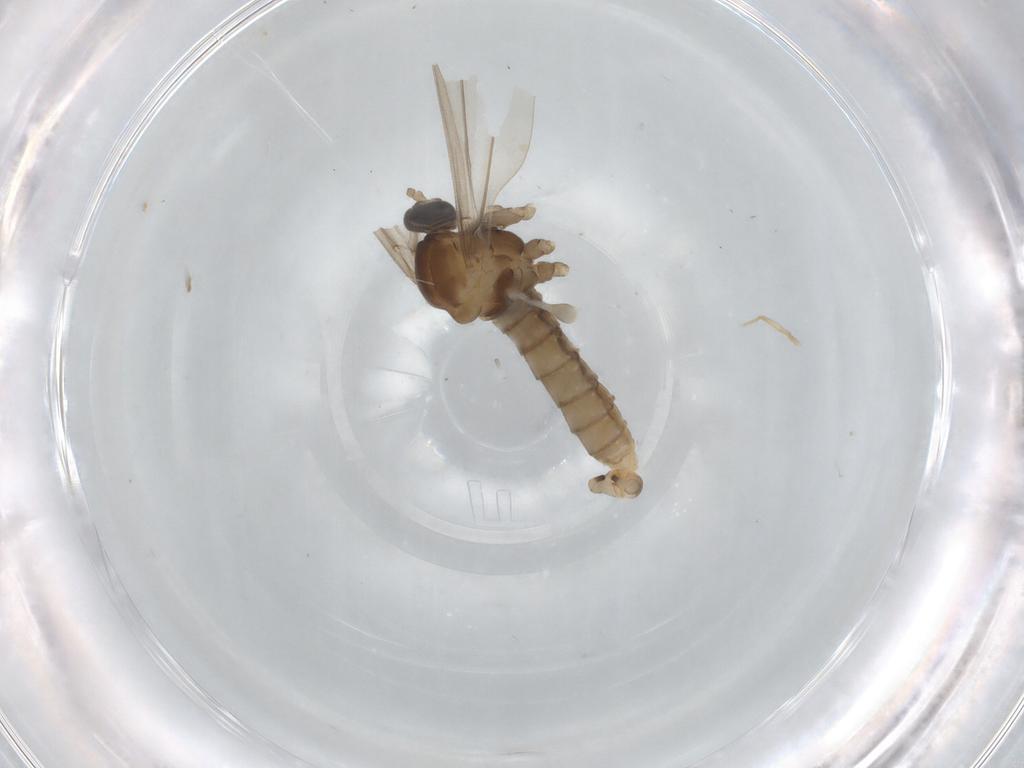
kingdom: Animalia
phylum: Arthropoda
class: Insecta
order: Diptera
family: Cecidomyiidae
